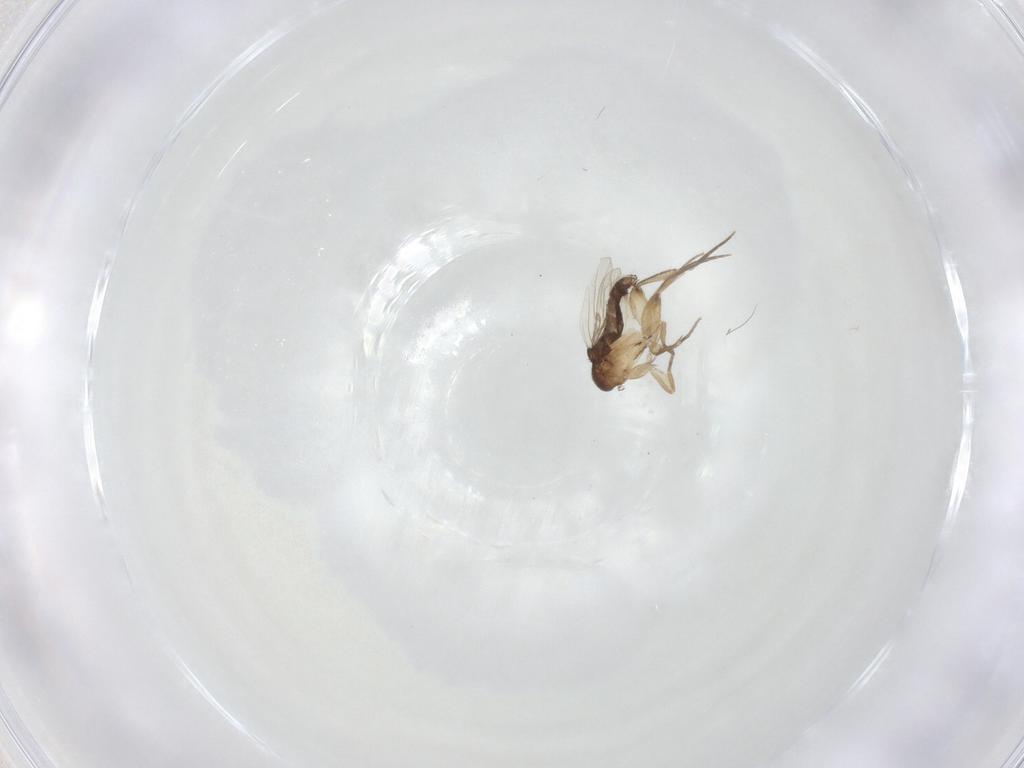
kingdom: Animalia
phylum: Arthropoda
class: Insecta
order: Diptera
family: Phoridae
